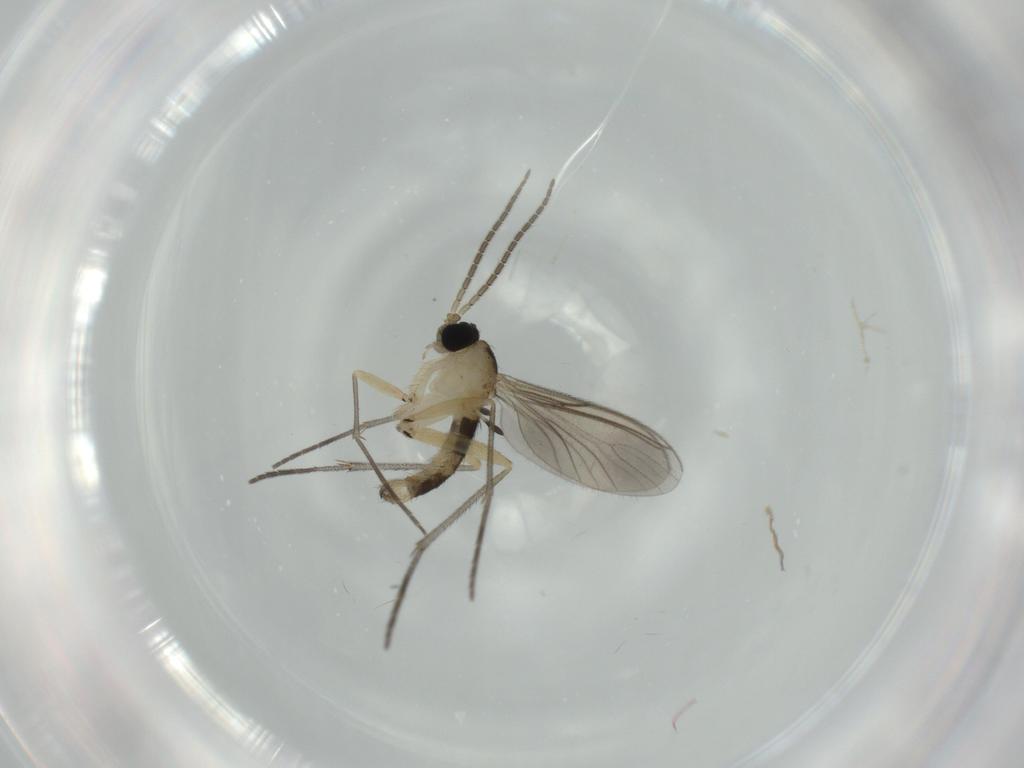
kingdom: Animalia
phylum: Arthropoda
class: Insecta
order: Diptera
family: Sciaridae
